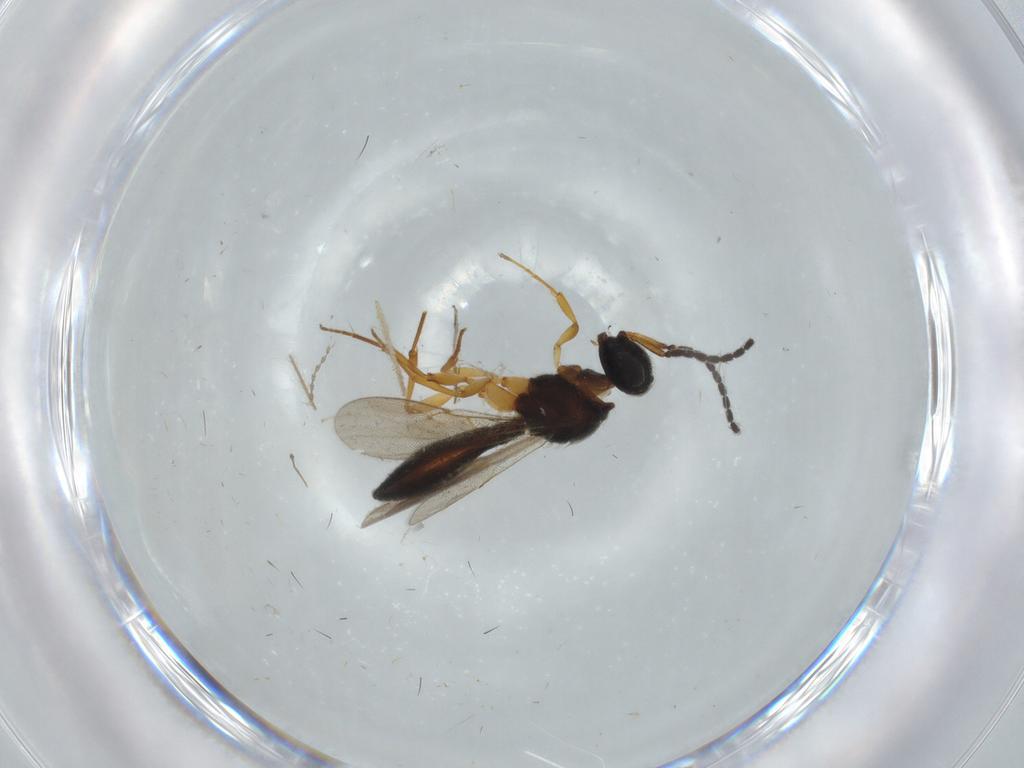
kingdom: Animalia
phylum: Arthropoda
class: Insecta
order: Hymenoptera
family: Scelionidae
